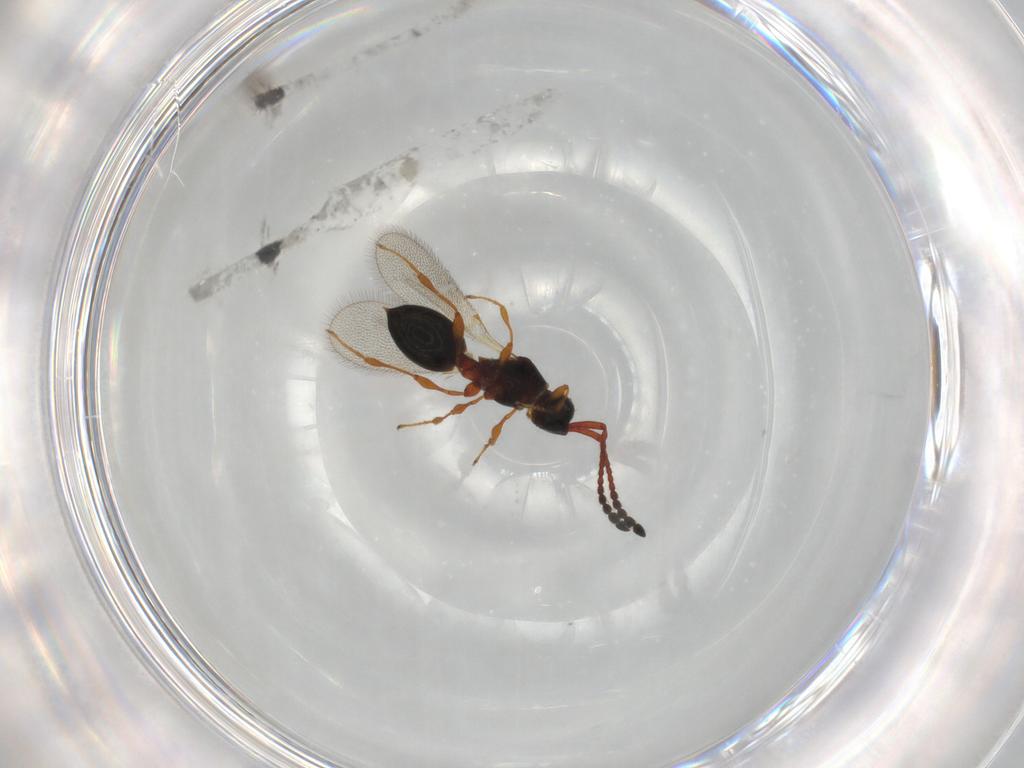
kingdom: Animalia
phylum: Arthropoda
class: Insecta
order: Hymenoptera
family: Diapriidae
